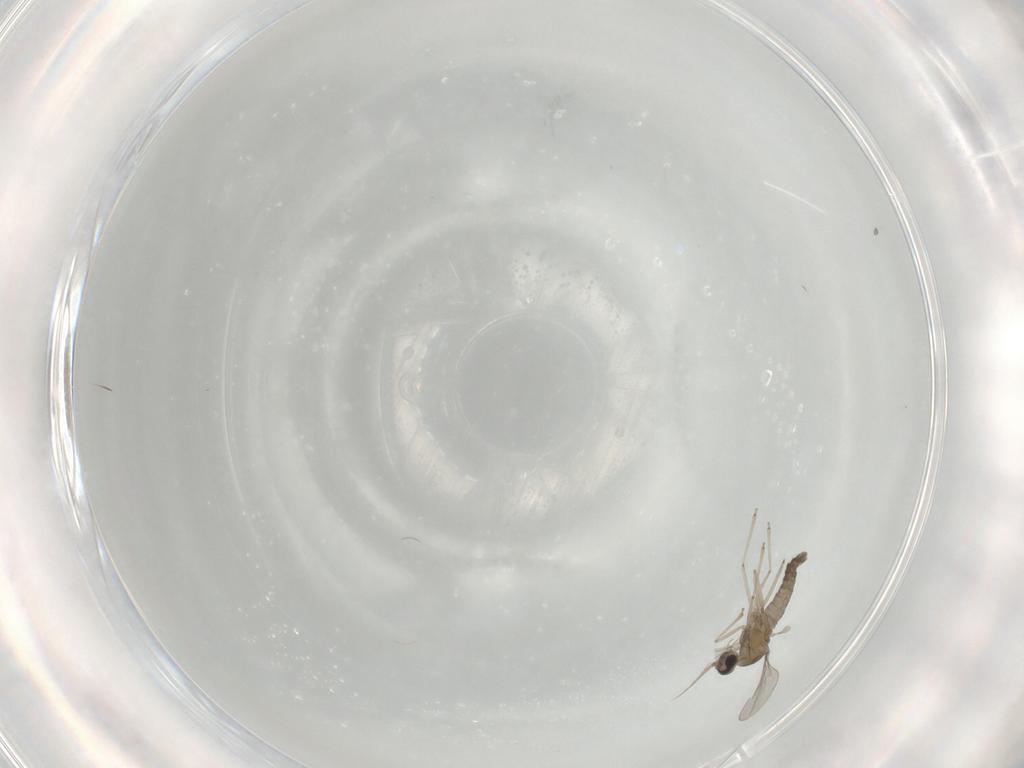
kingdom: Animalia
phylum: Arthropoda
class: Insecta
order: Diptera
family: Cecidomyiidae
